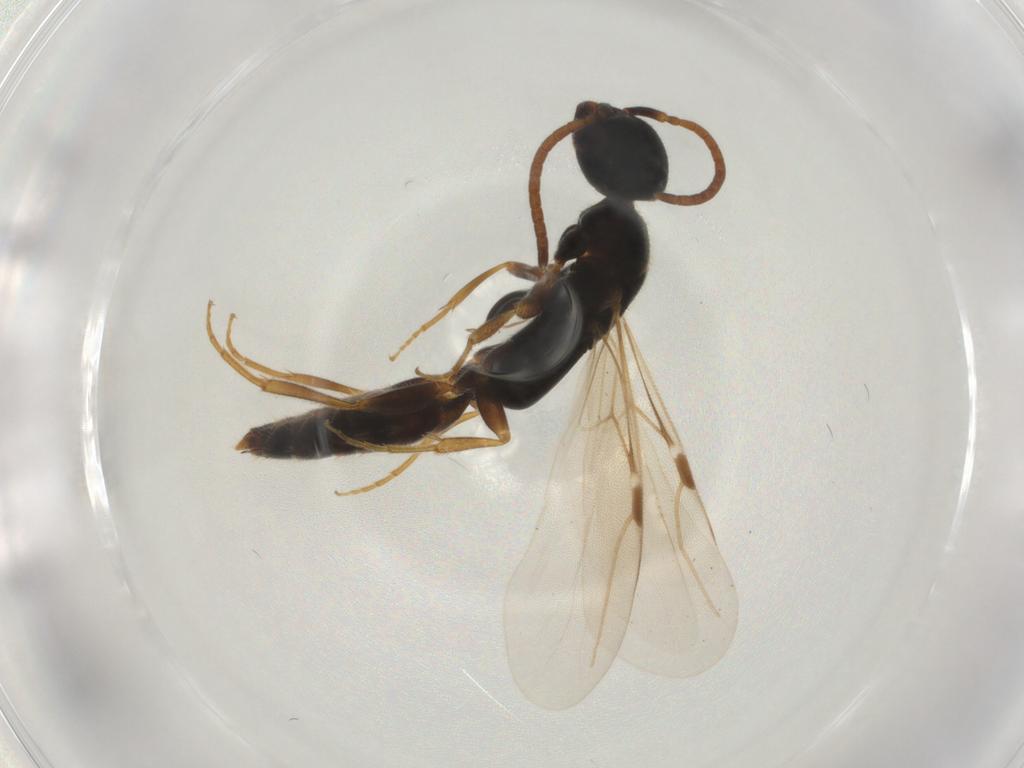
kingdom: Animalia
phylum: Arthropoda
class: Insecta
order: Hymenoptera
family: Bethylidae
